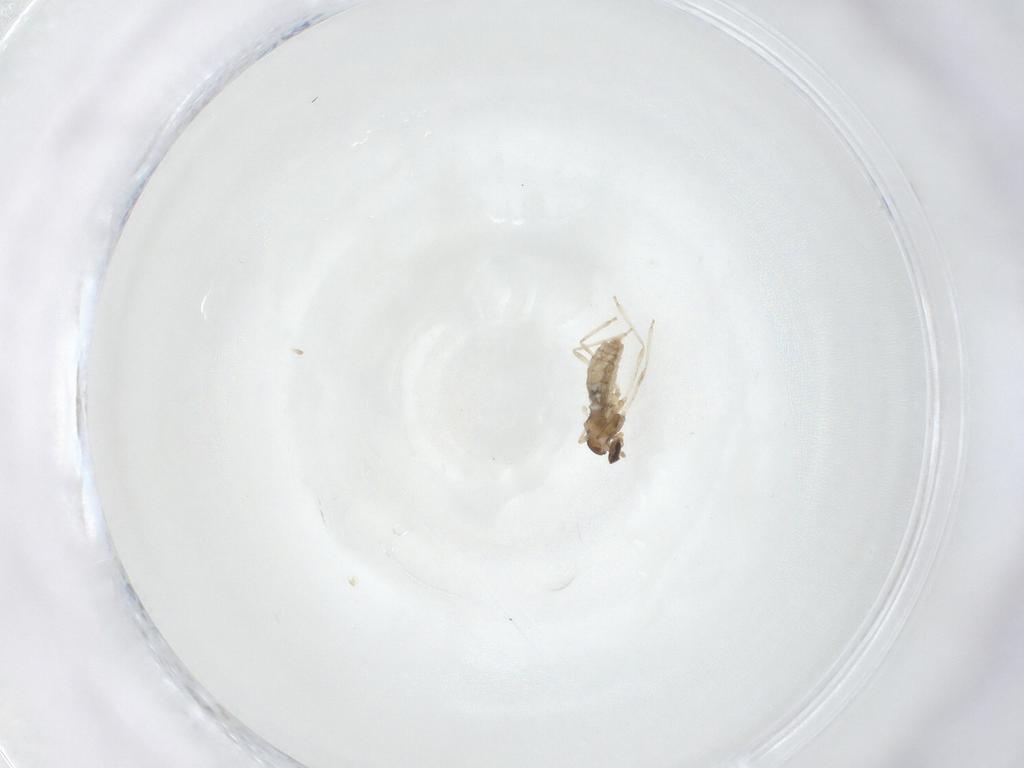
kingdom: Animalia
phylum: Arthropoda
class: Insecta
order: Diptera
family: Cecidomyiidae
